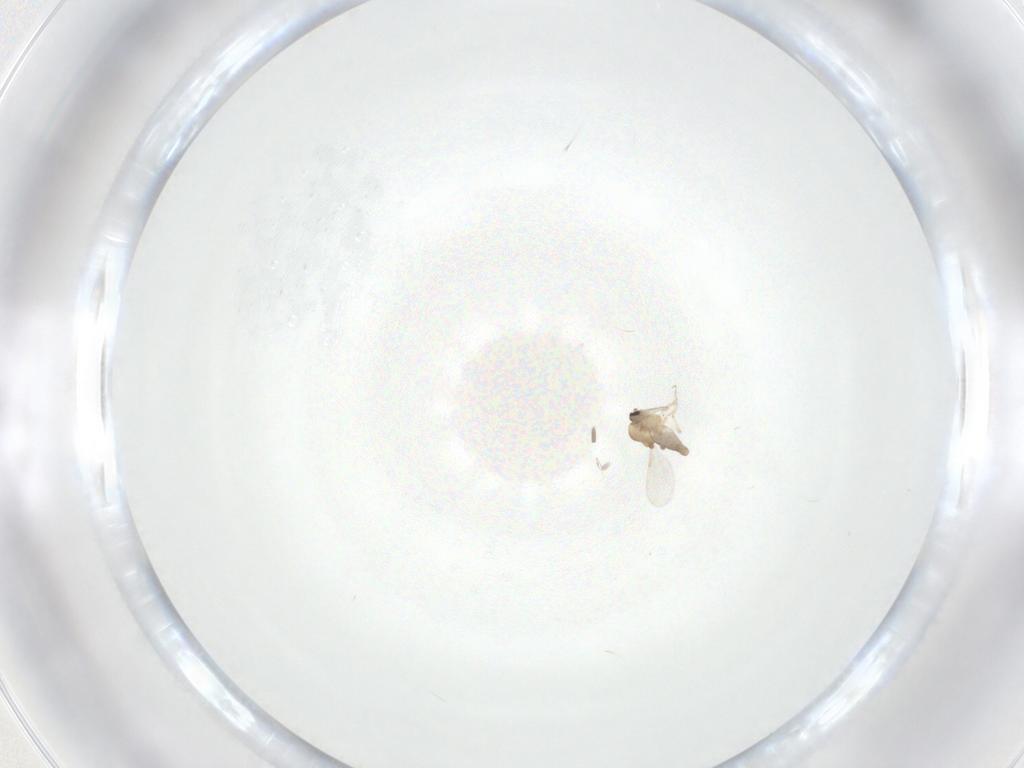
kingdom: Animalia
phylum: Arthropoda
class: Insecta
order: Diptera
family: Ceratopogonidae
